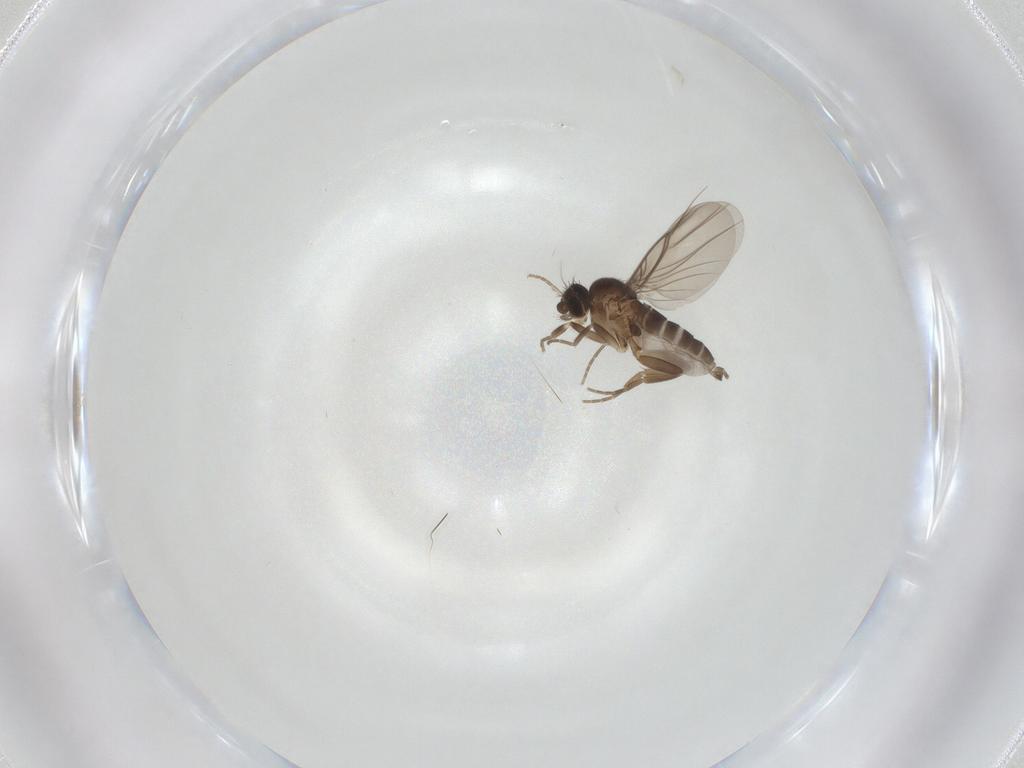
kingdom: Animalia
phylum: Arthropoda
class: Insecta
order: Diptera
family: Phoridae
